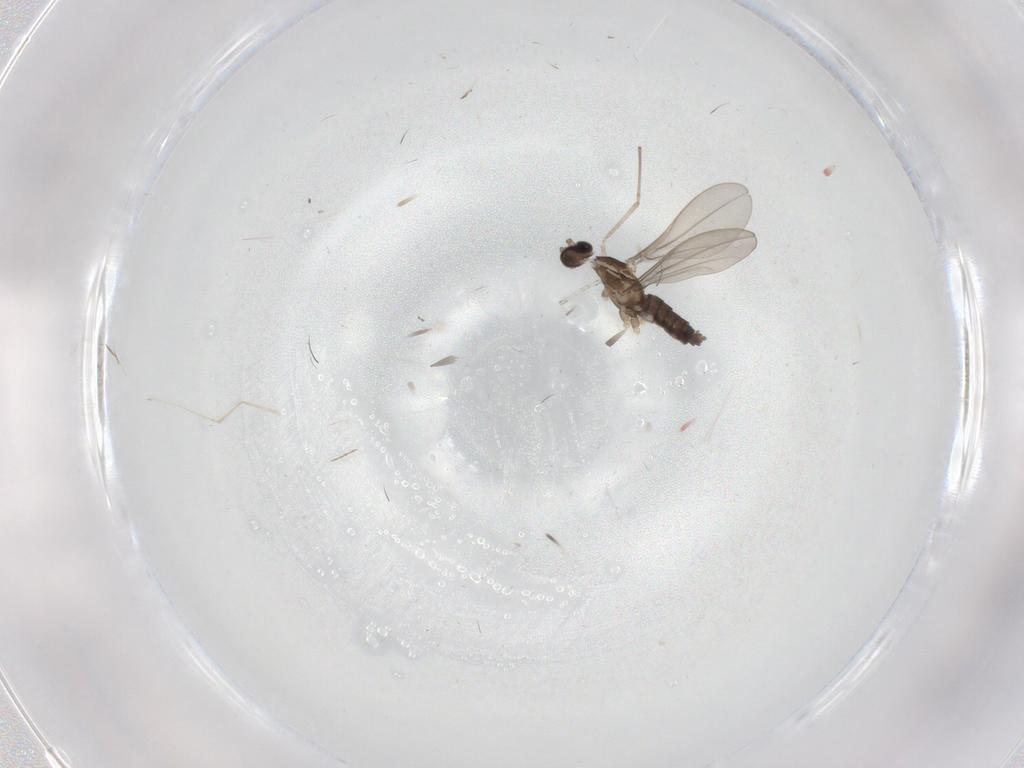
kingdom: Animalia
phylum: Arthropoda
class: Insecta
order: Diptera
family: Cecidomyiidae
